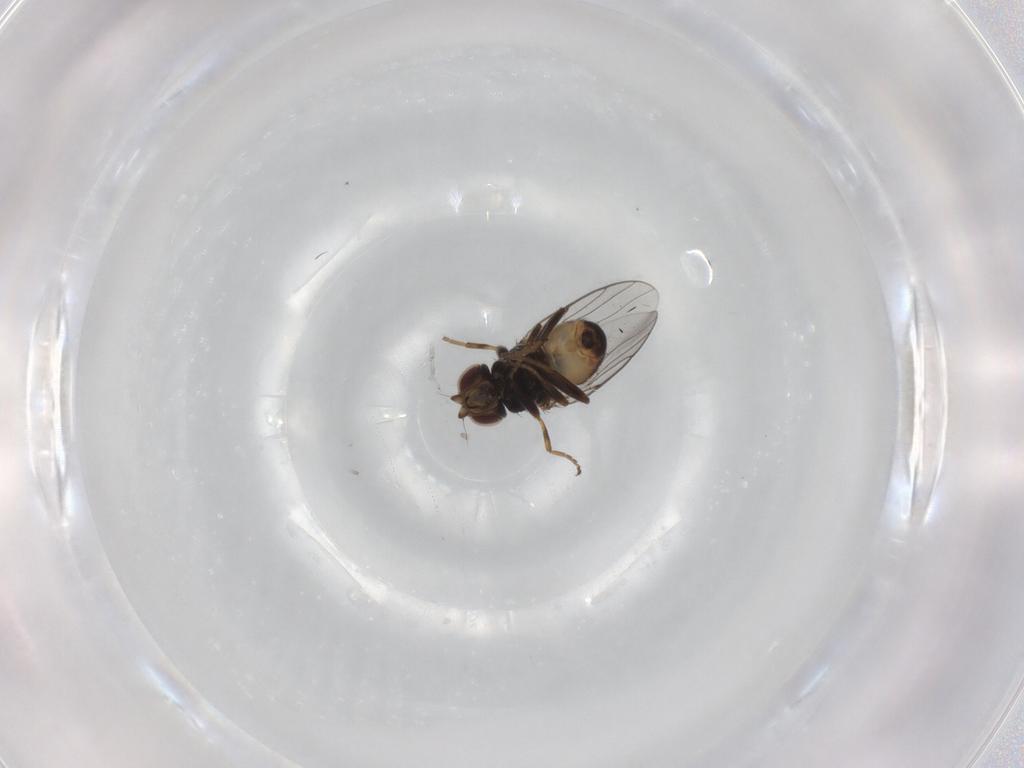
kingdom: Animalia
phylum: Arthropoda
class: Insecta
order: Diptera
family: Chloropidae
